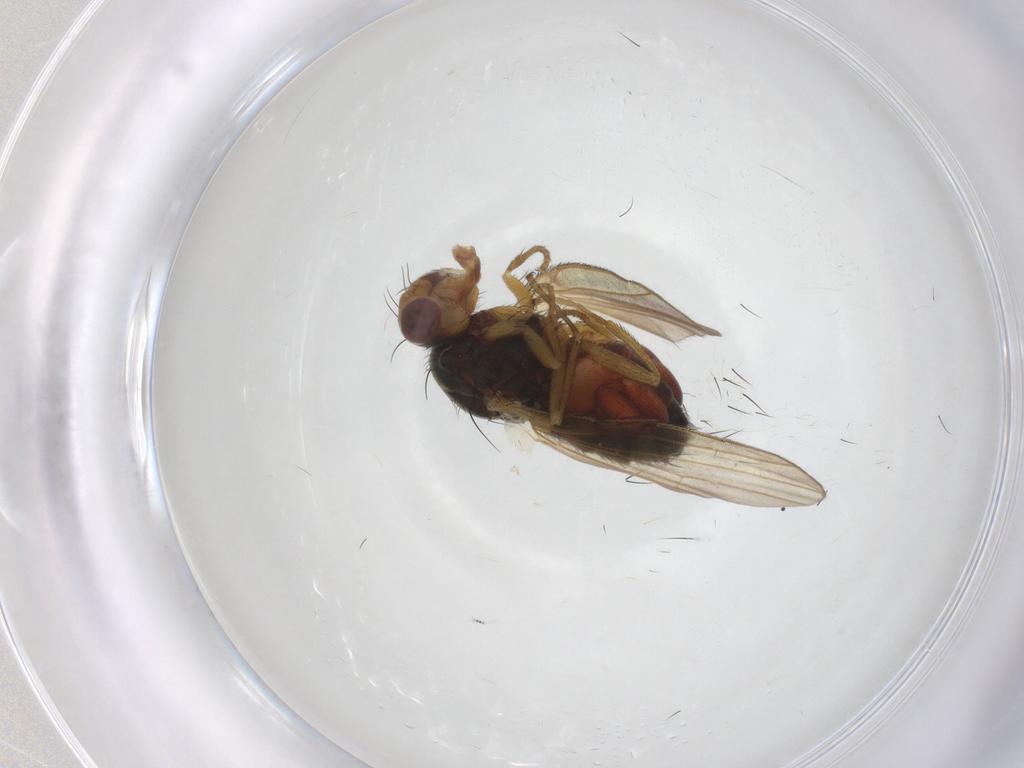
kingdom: Animalia
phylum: Arthropoda
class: Insecta
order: Diptera
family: Heleomyzidae
